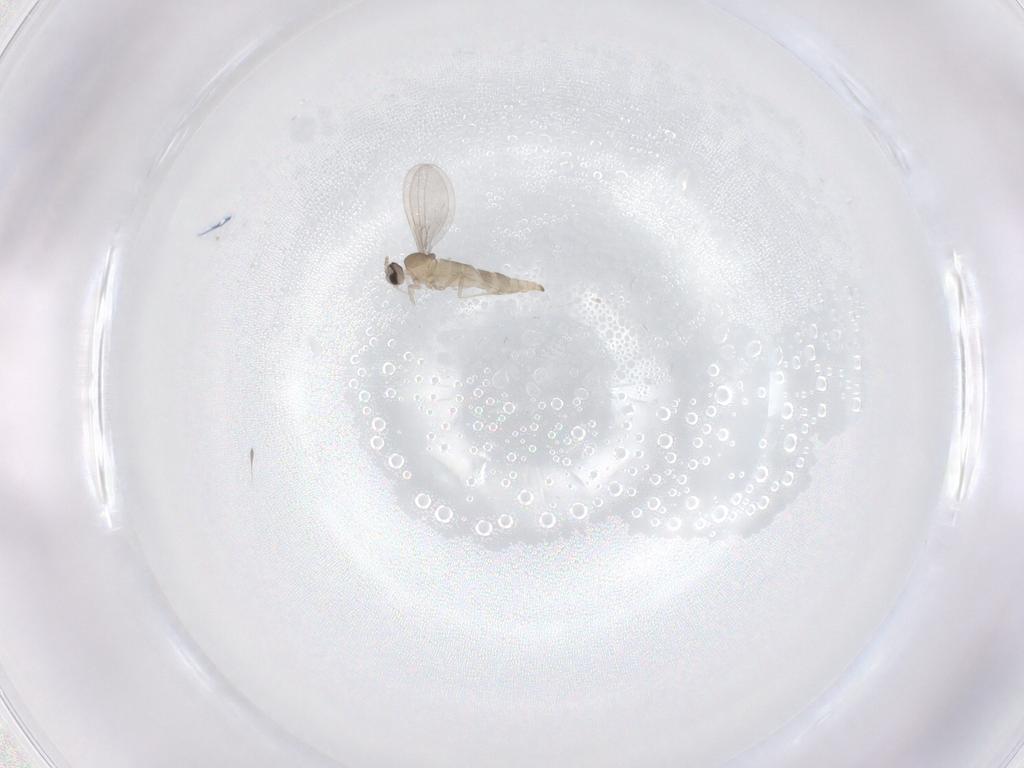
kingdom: Animalia
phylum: Arthropoda
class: Insecta
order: Diptera
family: Cecidomyiidae
